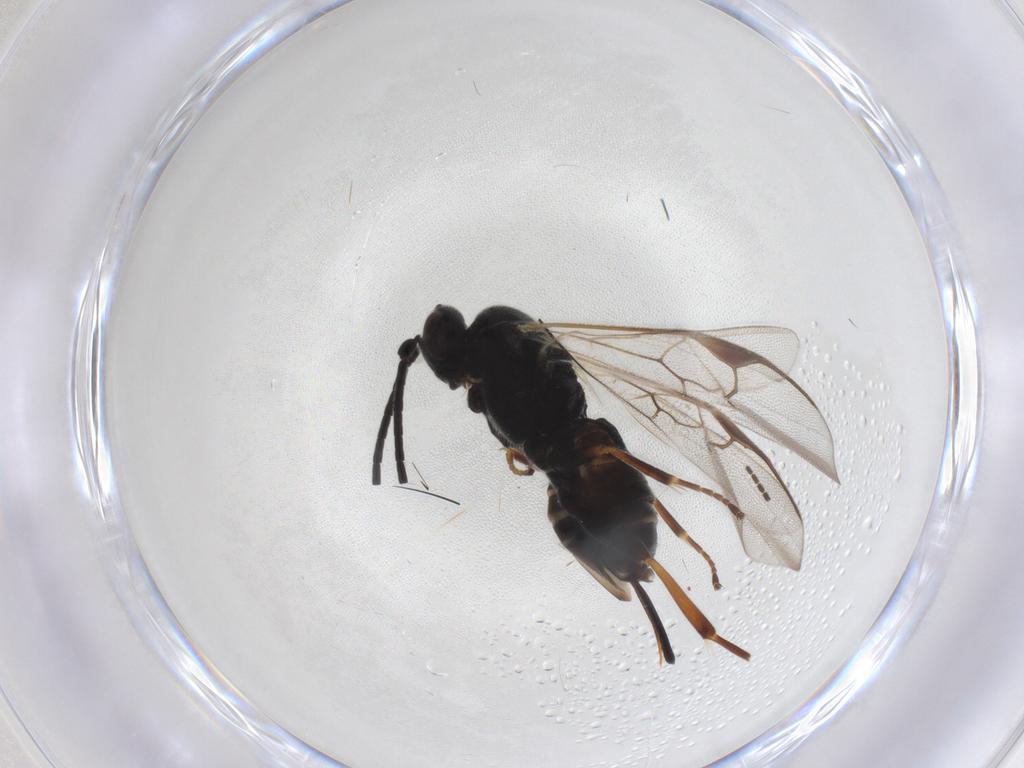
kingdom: Animalia
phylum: Arthropoda
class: Insecta
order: Hymenoptera
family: Braconidae
